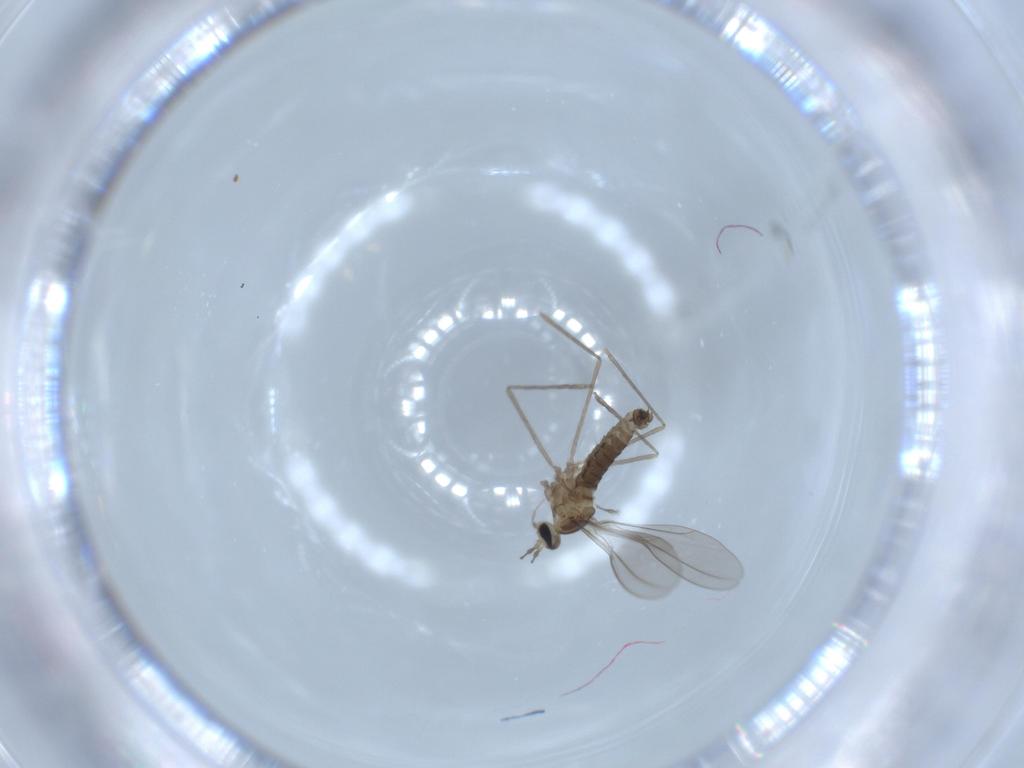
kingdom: Animalia
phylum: Arthropoda
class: Insecta
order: Diptera
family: Cecidomyiidae
